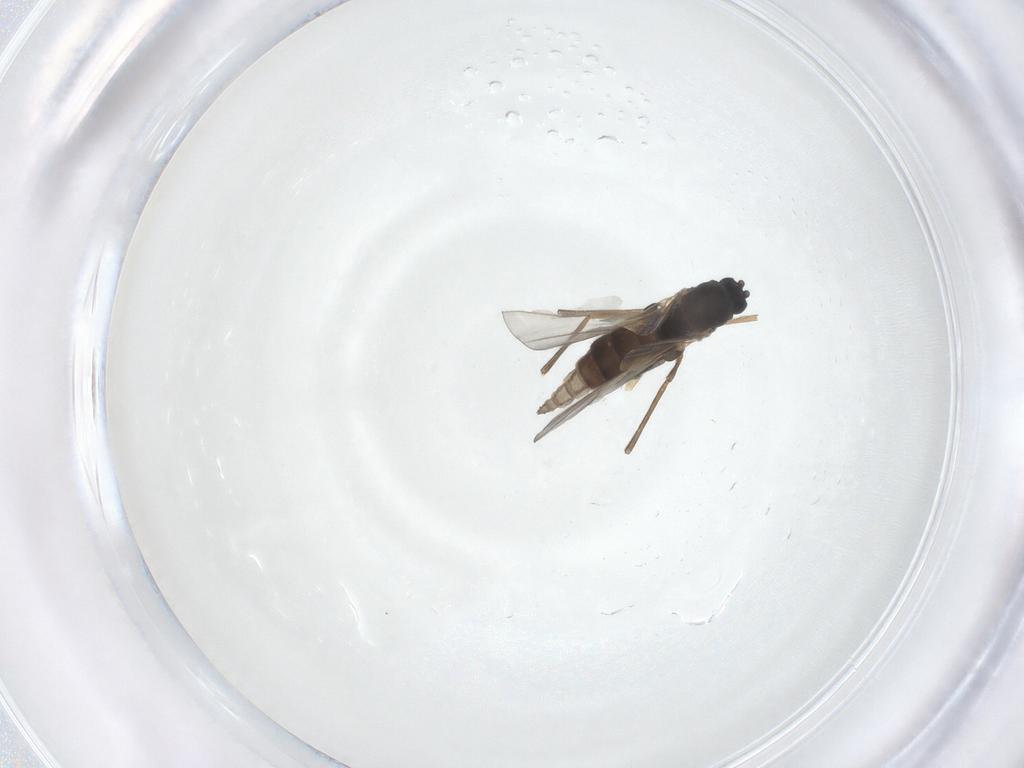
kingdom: Animalia
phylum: Arthropoda
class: Insecta
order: Diptera
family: Sciaridae
